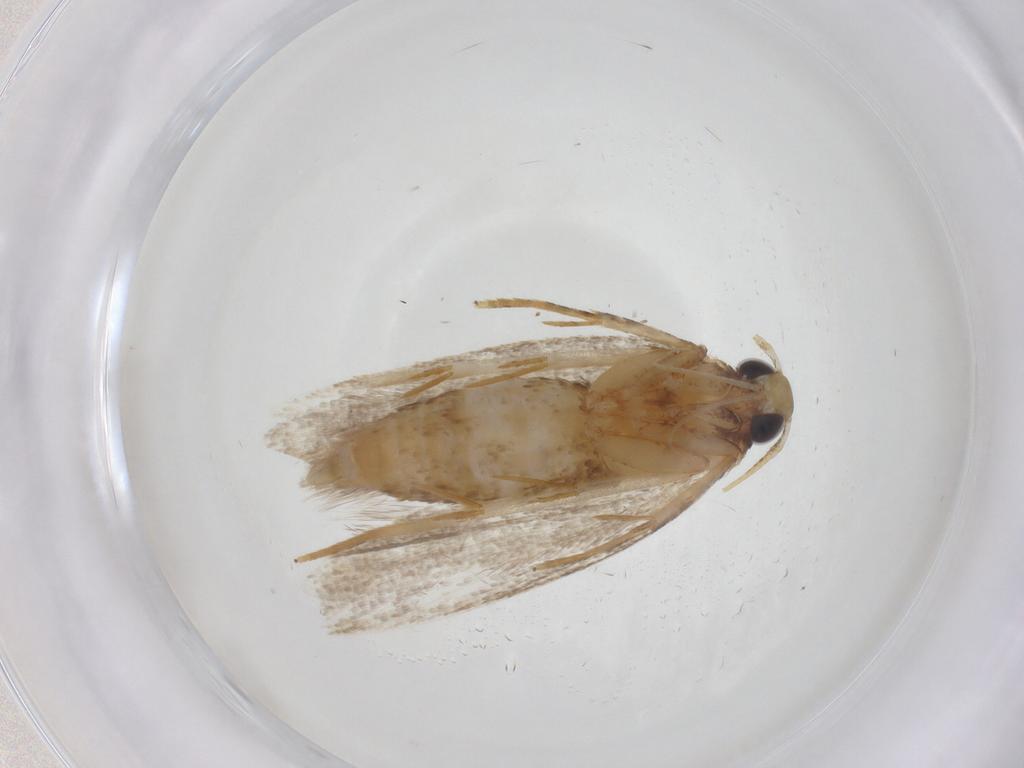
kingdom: Animalia
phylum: Arthropoda
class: Insecta
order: Lepidoptera
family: Oecophoridae
